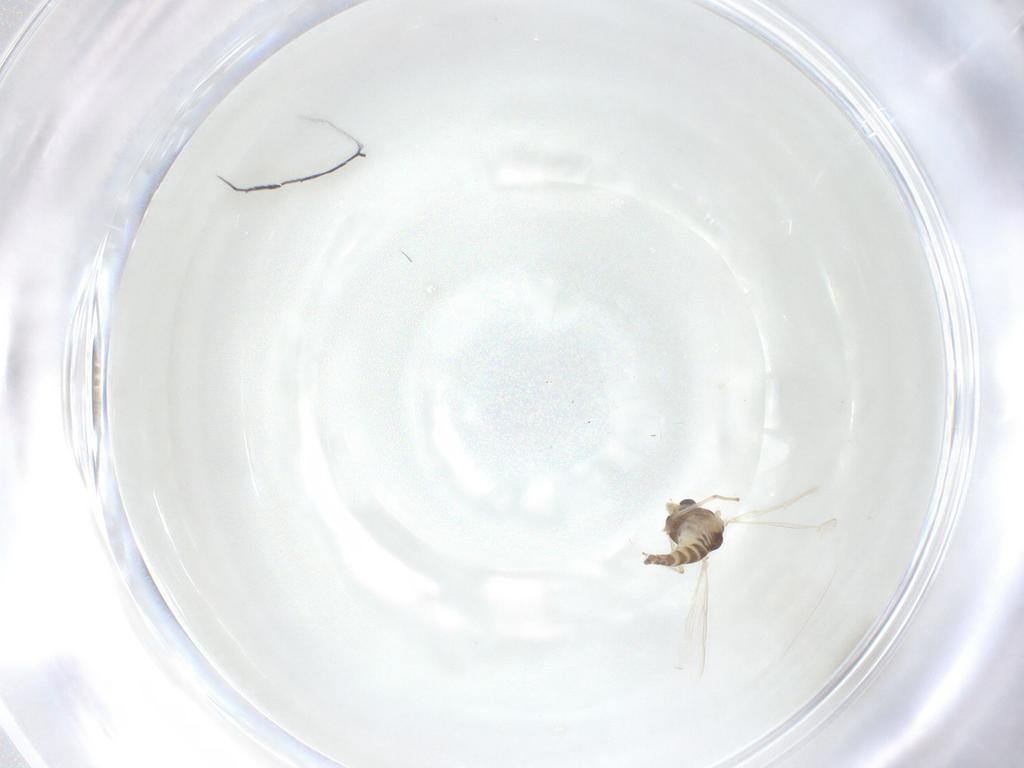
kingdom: Animalia
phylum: Arthropoda
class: Insecta
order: Diptera
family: Chironomidae
